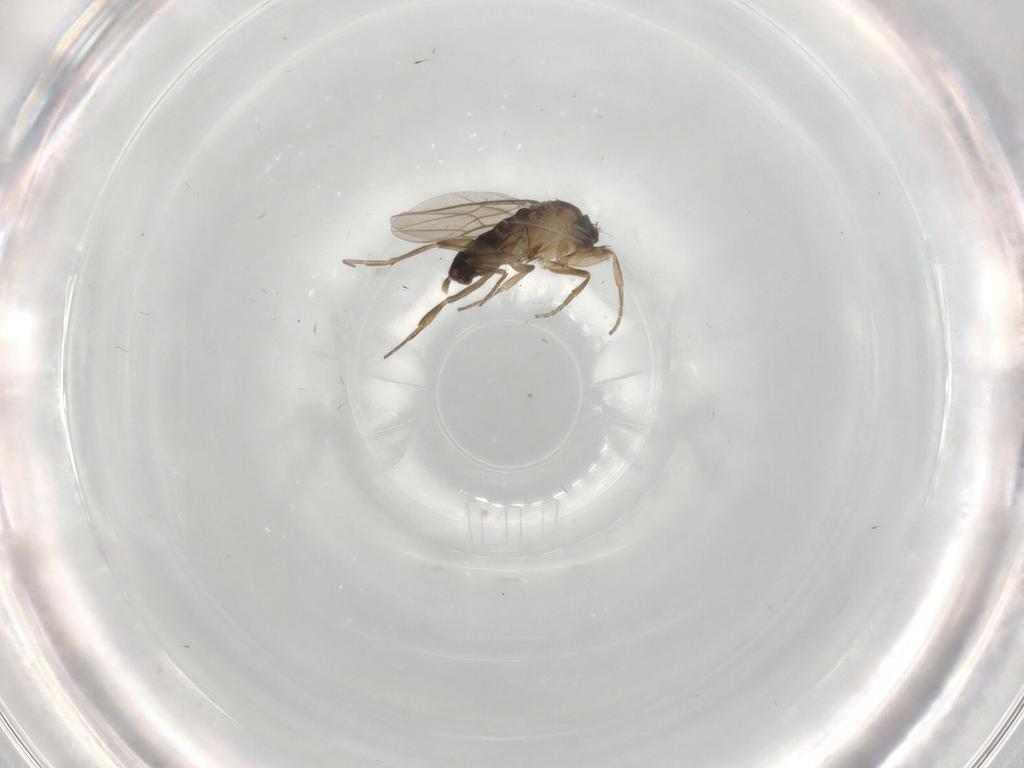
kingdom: Animalia
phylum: Arthropoda
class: Insecta
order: Diptera
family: Phoridae
